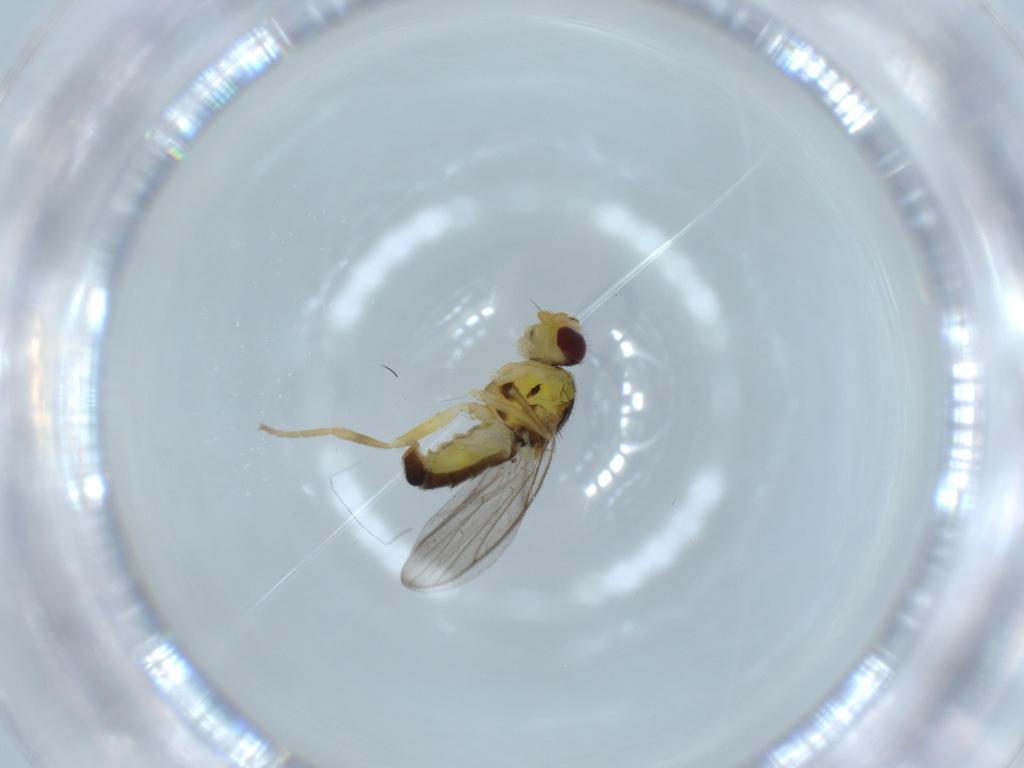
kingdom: Animalia
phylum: Arthropoda
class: Insecta
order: Diptera
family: Chloropidae
